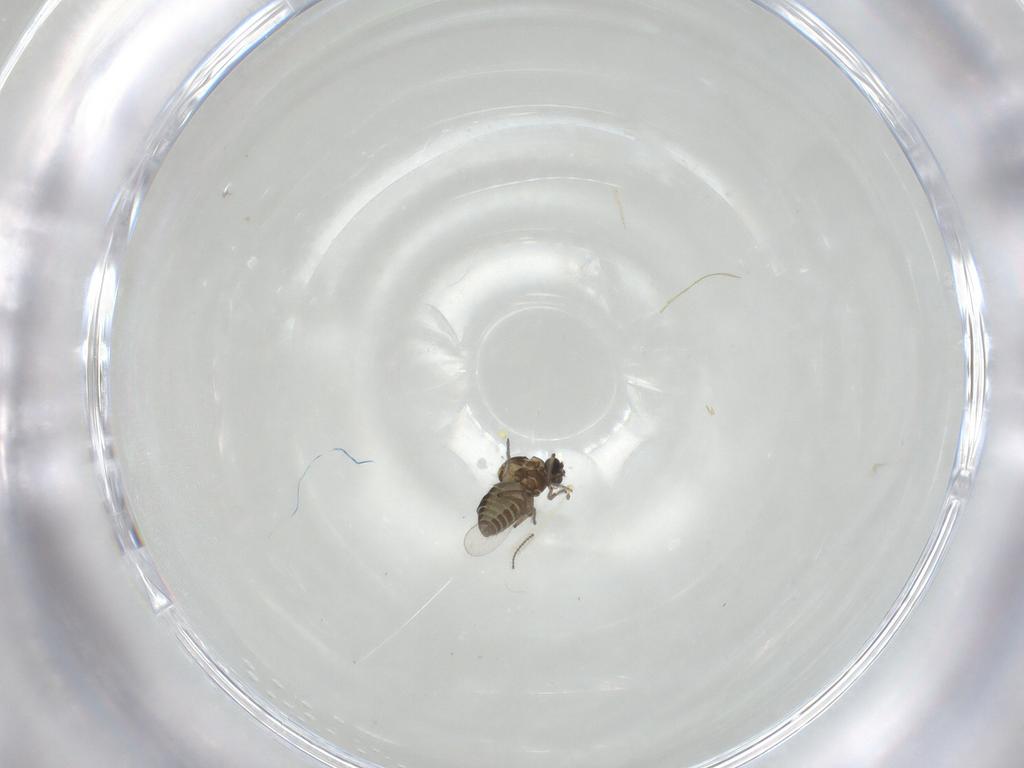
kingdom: Animalia
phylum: Arthropoda
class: Insecta
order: Diptera
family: Ceratopogonidae
